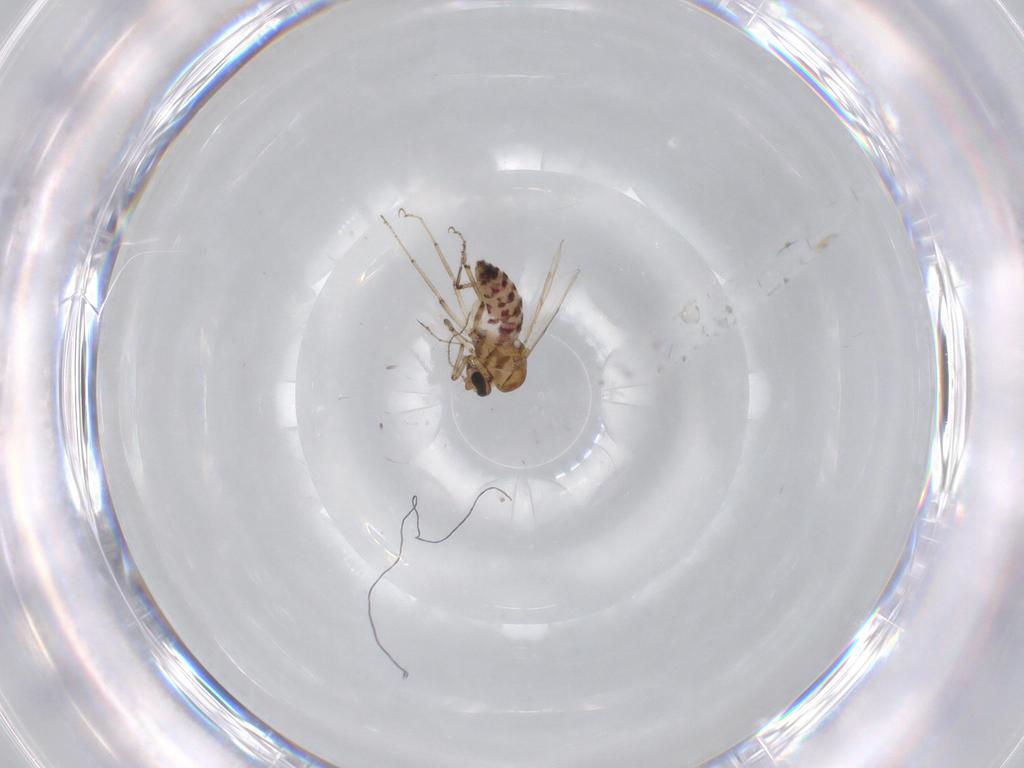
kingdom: Animalia
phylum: Arthropoda
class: Insecta
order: Diptera
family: Ceratopogonidae
